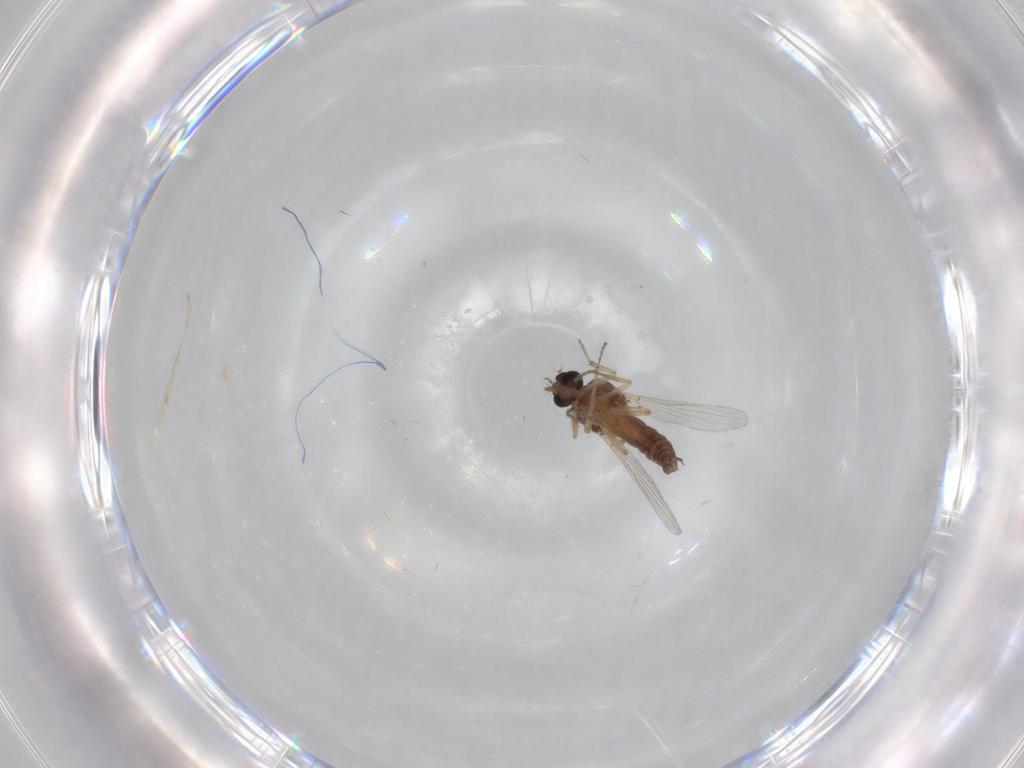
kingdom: Animalia
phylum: Arthropoda
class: Insecta
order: Diptera
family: Ceratopogonidae
